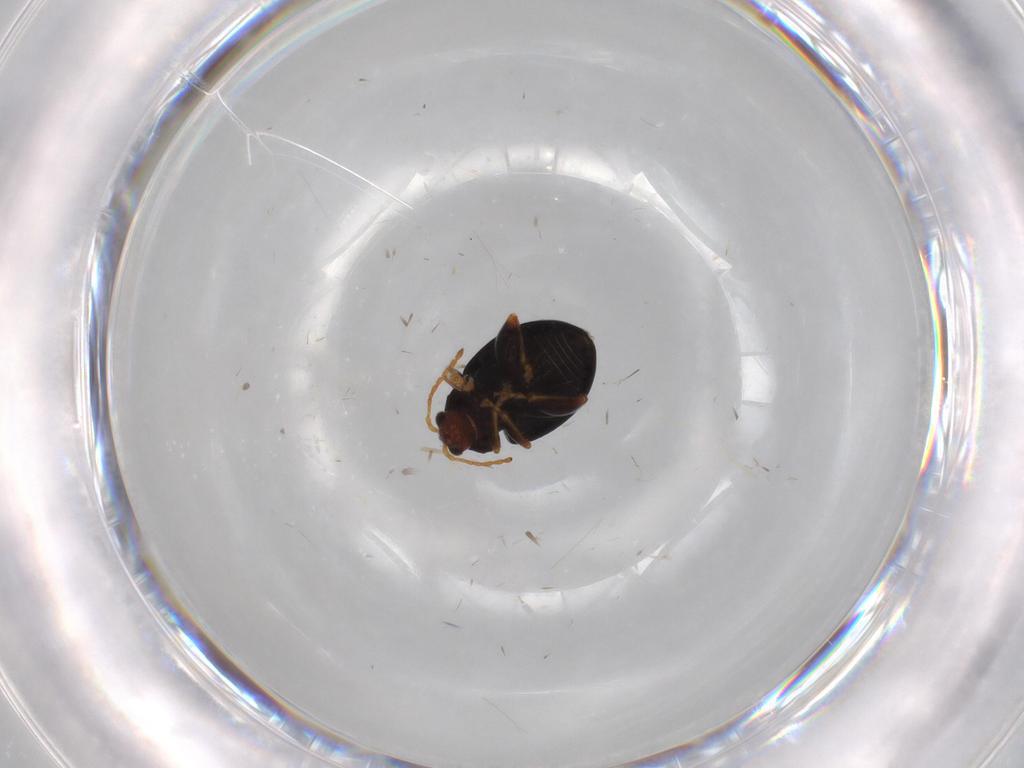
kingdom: Animalia
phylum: Arthropoda
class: Insecta
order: Coleoptera
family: Chrysomelidae
